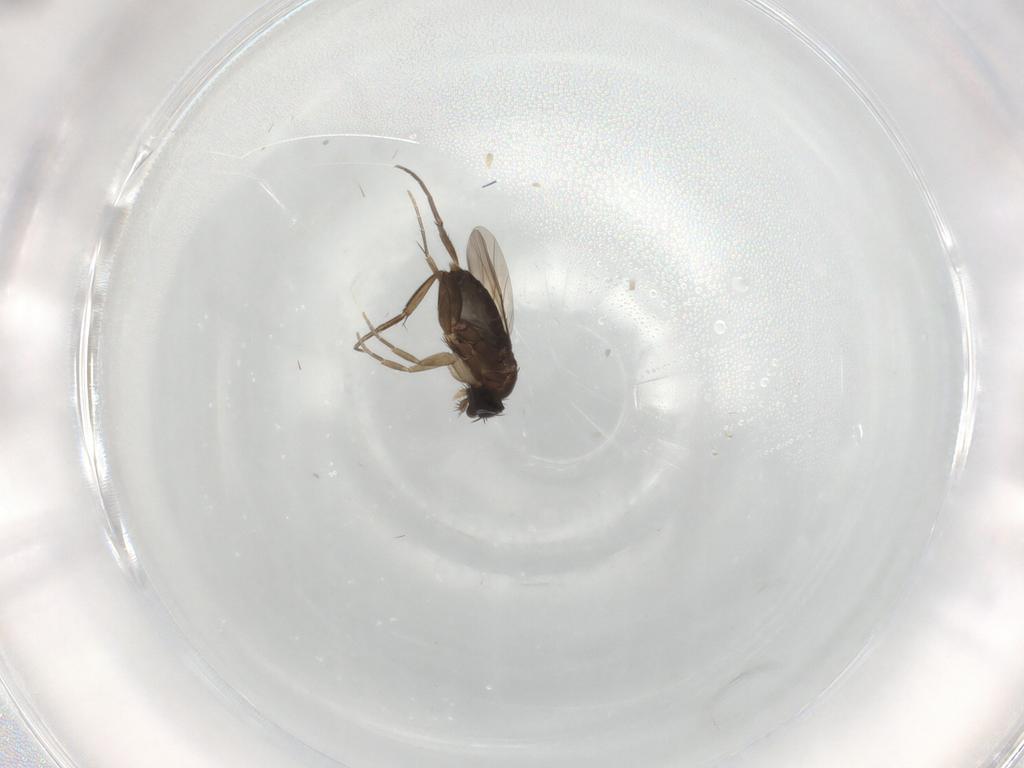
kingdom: Animalia
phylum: Arthropoda
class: Insecta
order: Diptera
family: Phoridae
